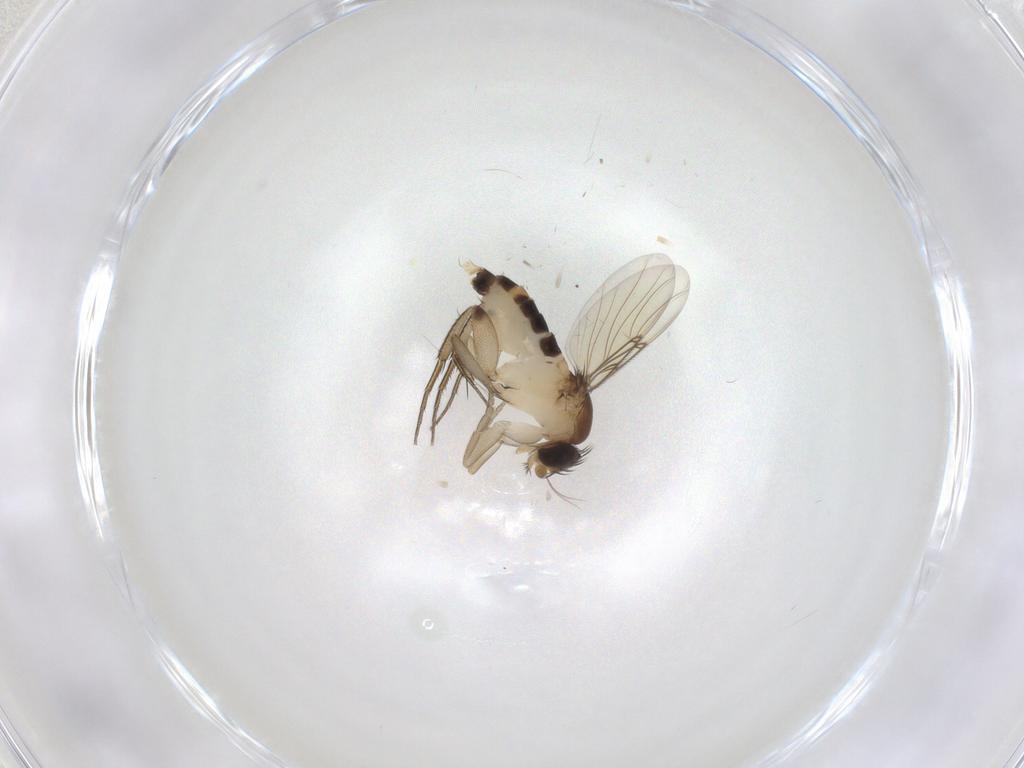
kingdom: Animalia
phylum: Arthropoda
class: Insecta
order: Diptera
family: Phoridae
